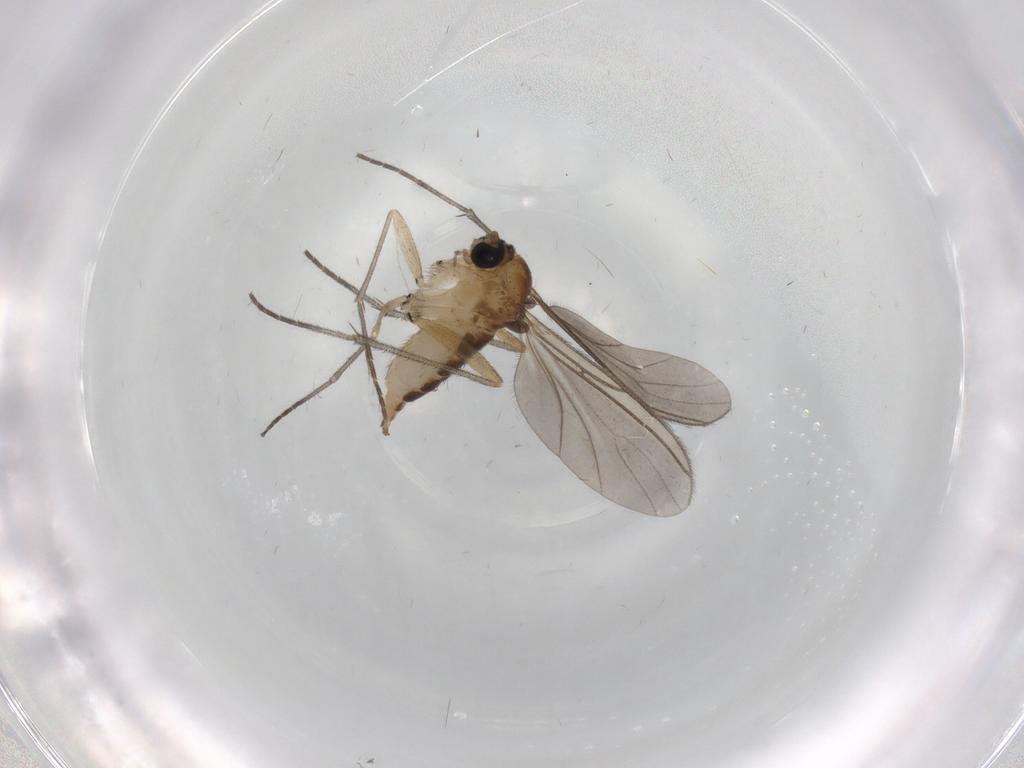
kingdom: Animalia
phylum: Arthropoda
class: Insecta
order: Diptera
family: Sciaridae
